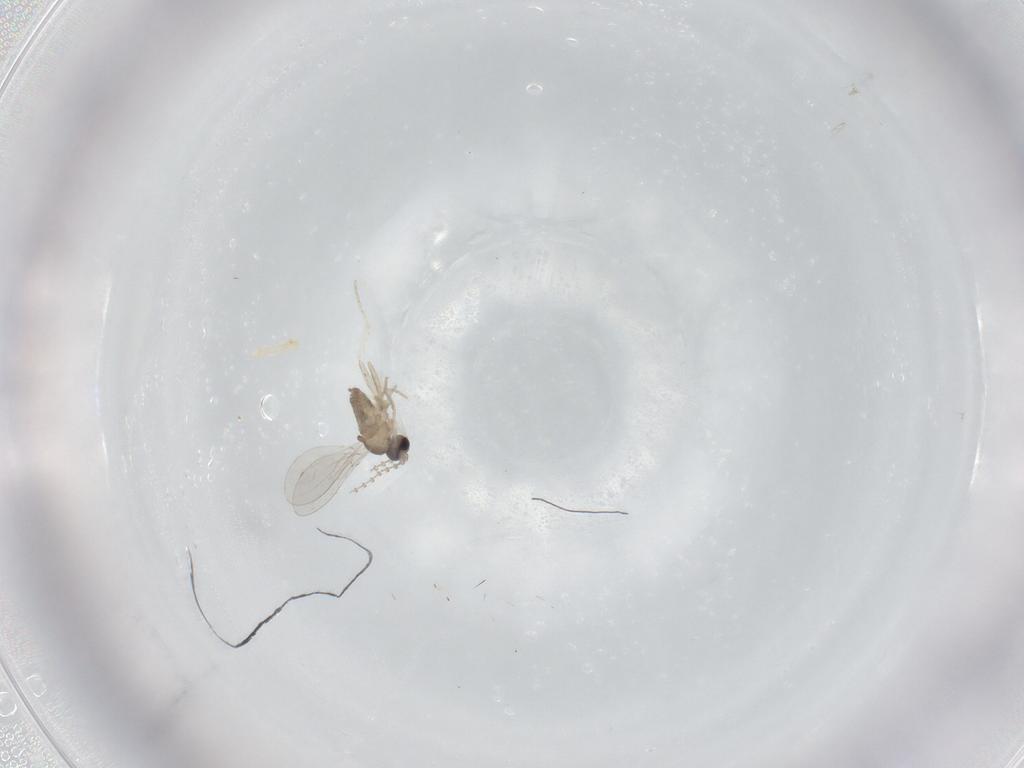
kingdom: Animalia
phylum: Arthropoda
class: Insecta
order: Diptera
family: Cecidomyiidae
